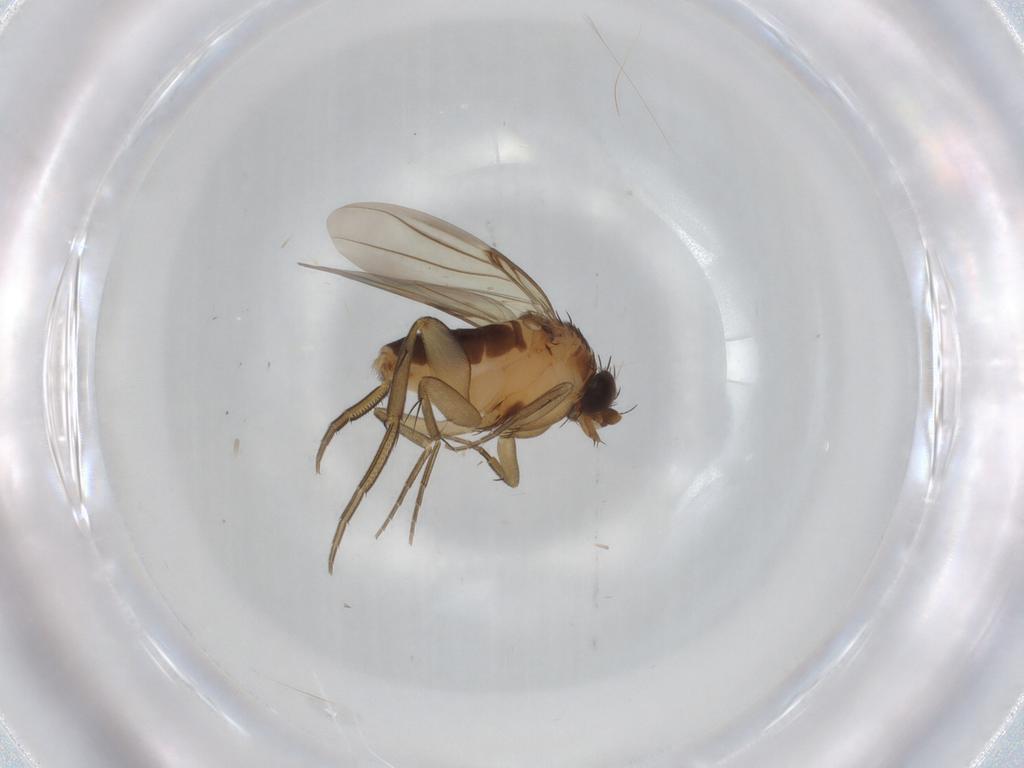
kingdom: Animalia
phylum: Arthropoda
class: Insecta
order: Diptera
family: Phoridae
